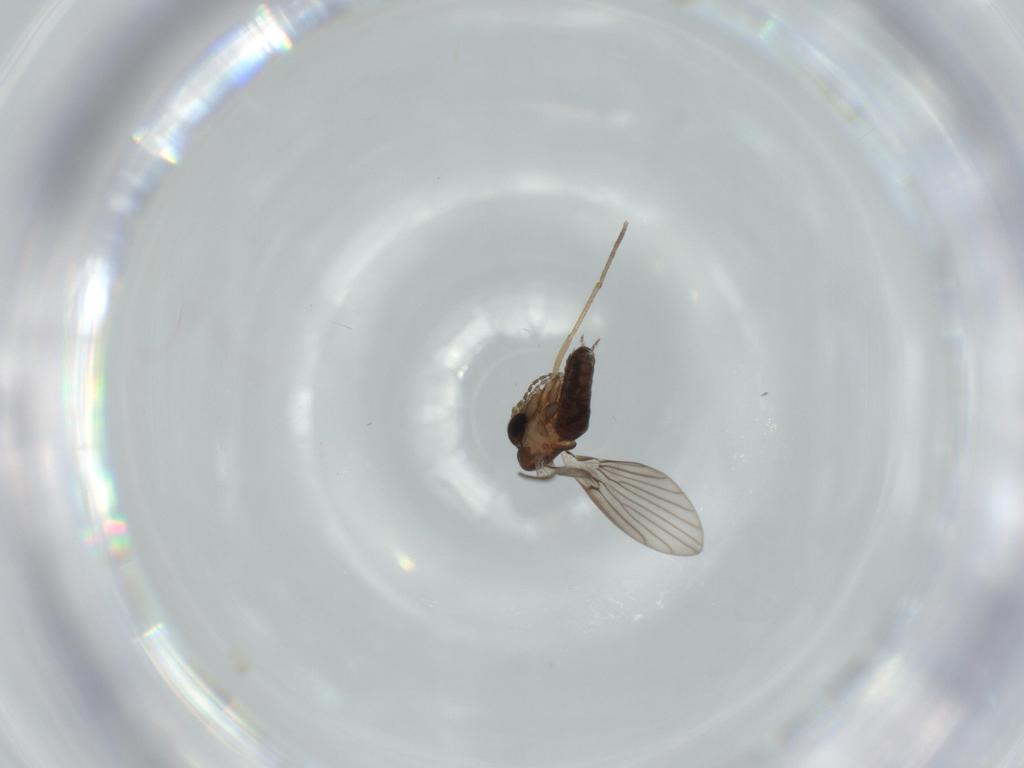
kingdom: Animalia
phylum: Arthropoda
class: Insecta
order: Diptera
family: Psychodidae
